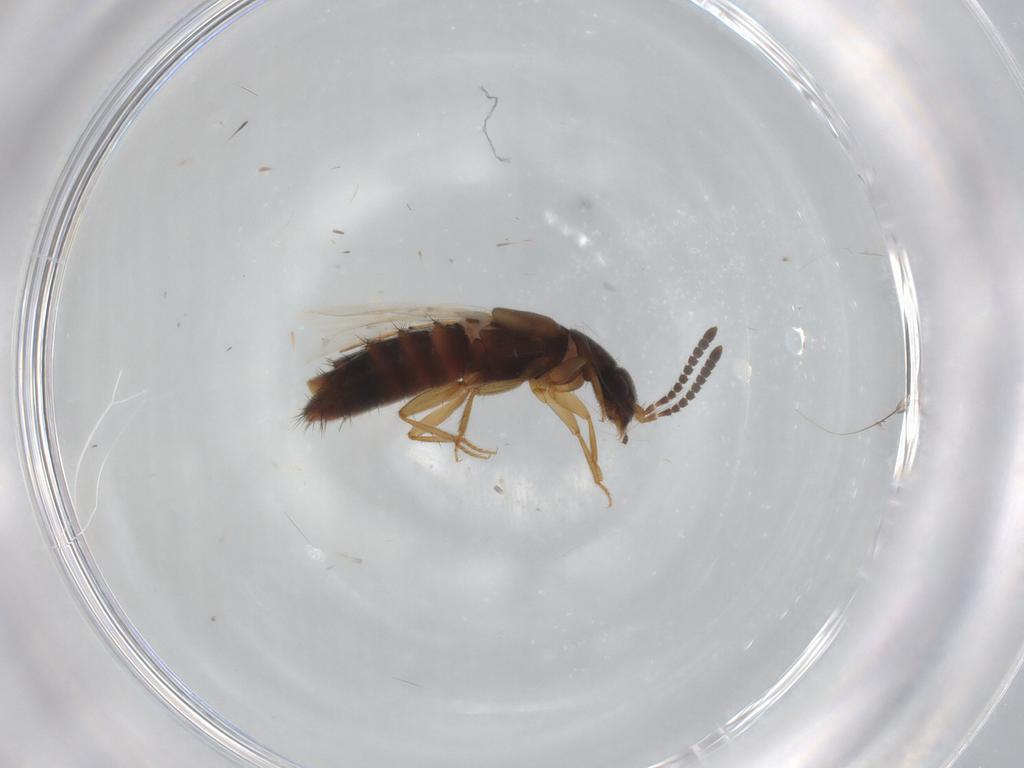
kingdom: Animalia
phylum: Arthropoda
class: Insecta
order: Coleoptera
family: Staphylinidae
